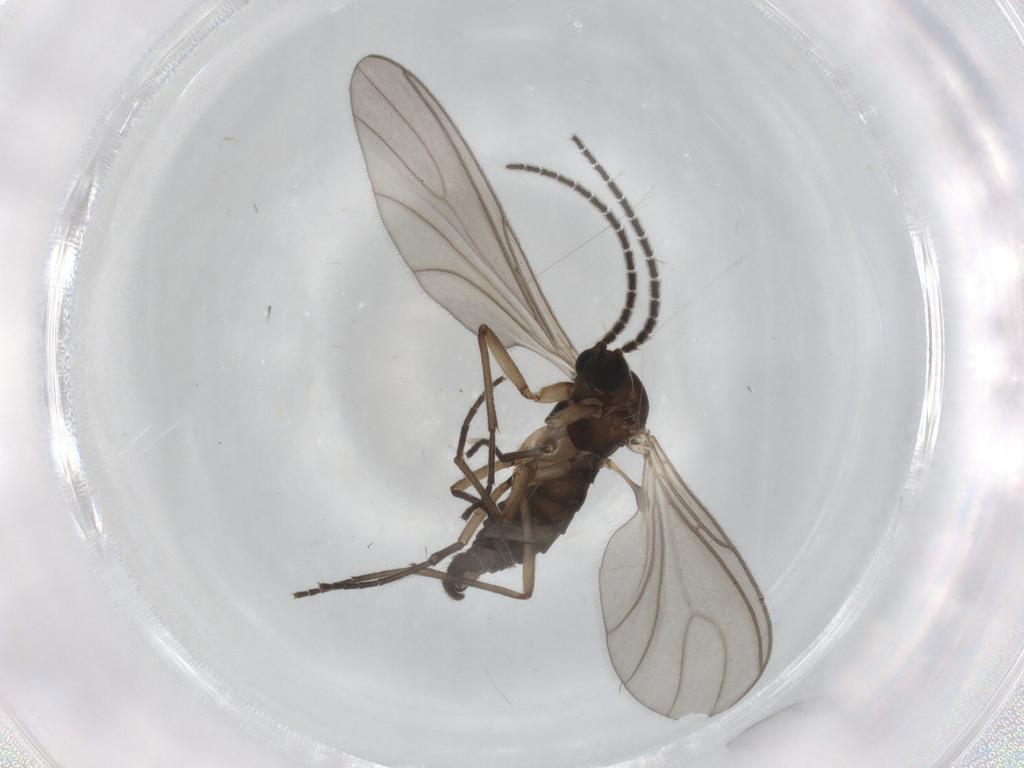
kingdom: Animalia
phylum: Arthropoda
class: Insecta
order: Diptera
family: Sciaridae
